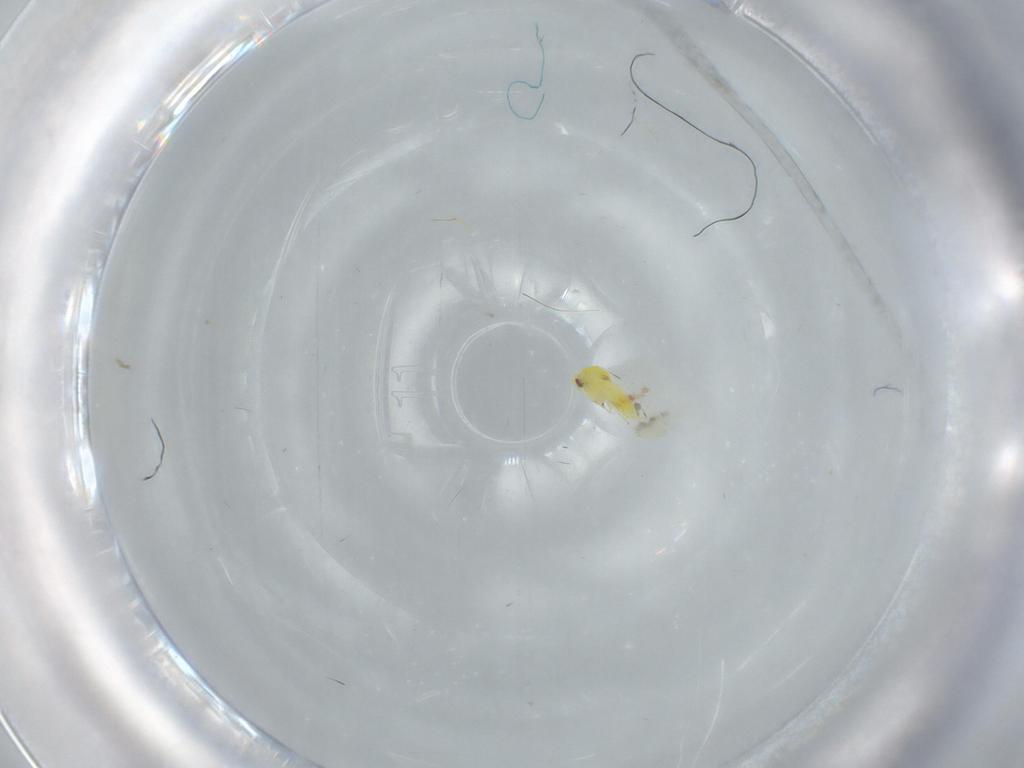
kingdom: Animalia
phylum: Arthropoda
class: Insecta
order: Hemiptera
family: Aleyrodidae
